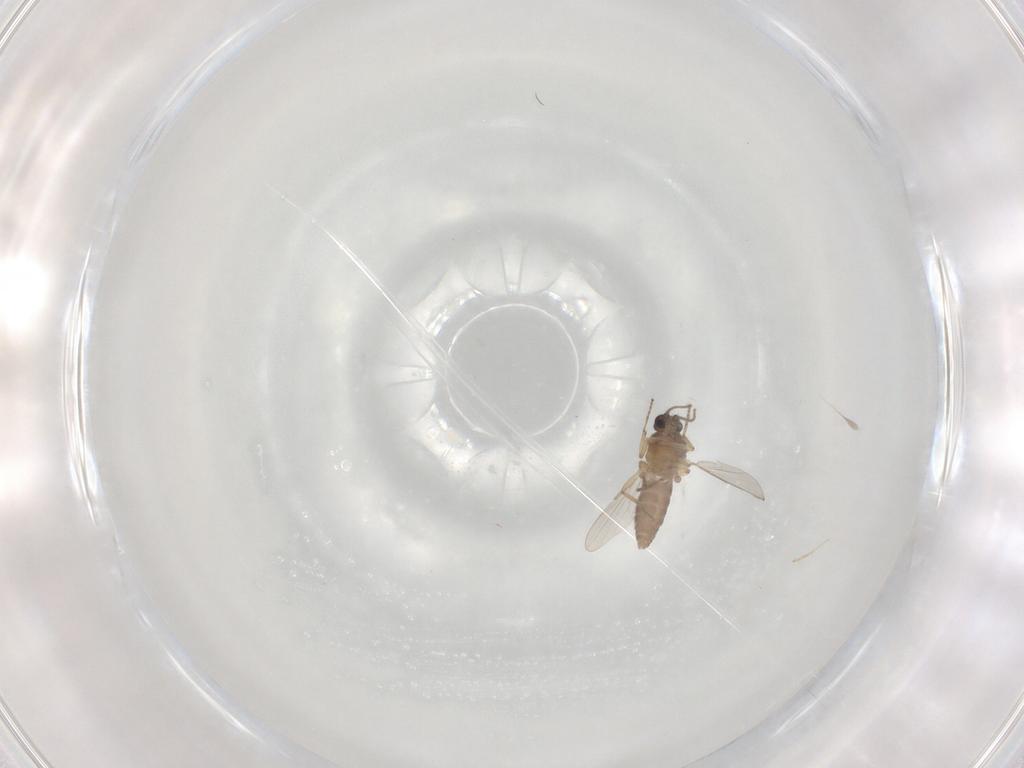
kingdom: Animalia
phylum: Arthropoda
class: Insecta
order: Diptera
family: Ceratopogonidae
